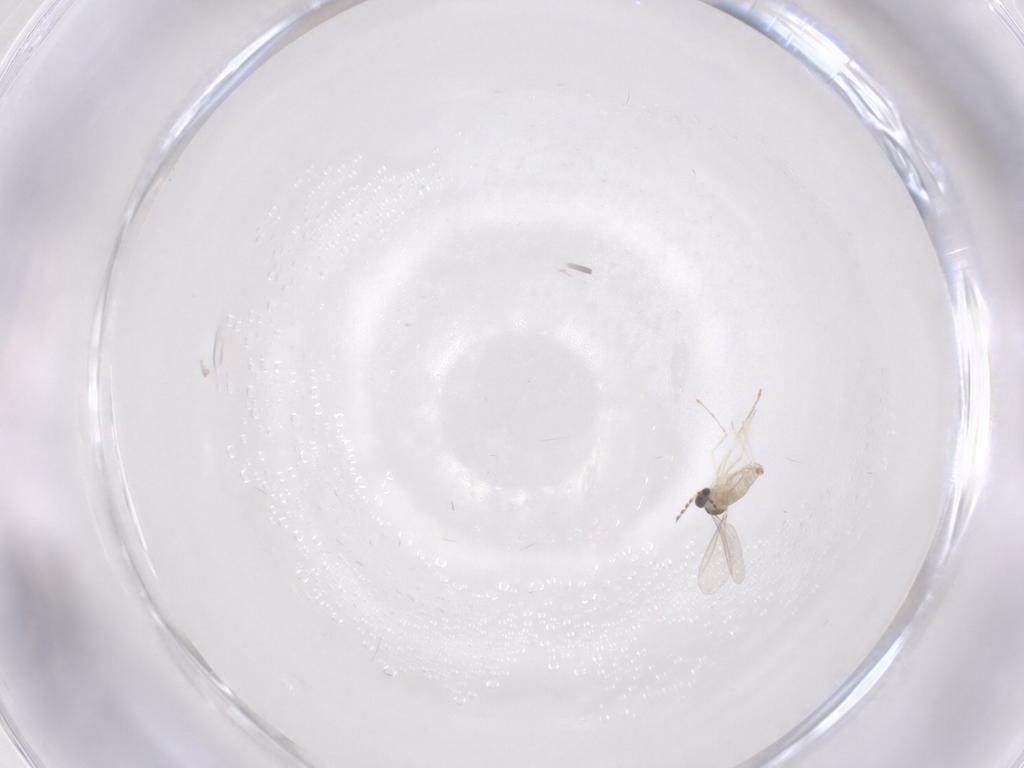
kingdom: Animalia
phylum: Arthropoda
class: Insecta
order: Diptera
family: Cecidomyiidae
